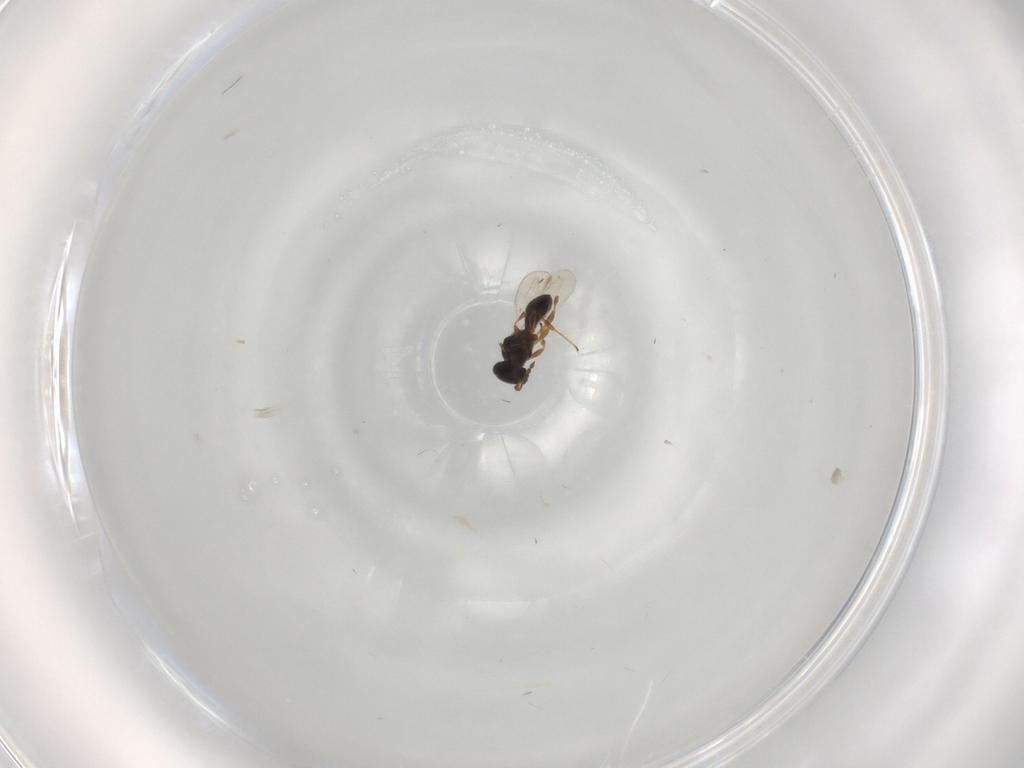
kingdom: Animalia
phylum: Arthropoda
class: Insecta
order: Hymenoptera
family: Platygastridae
